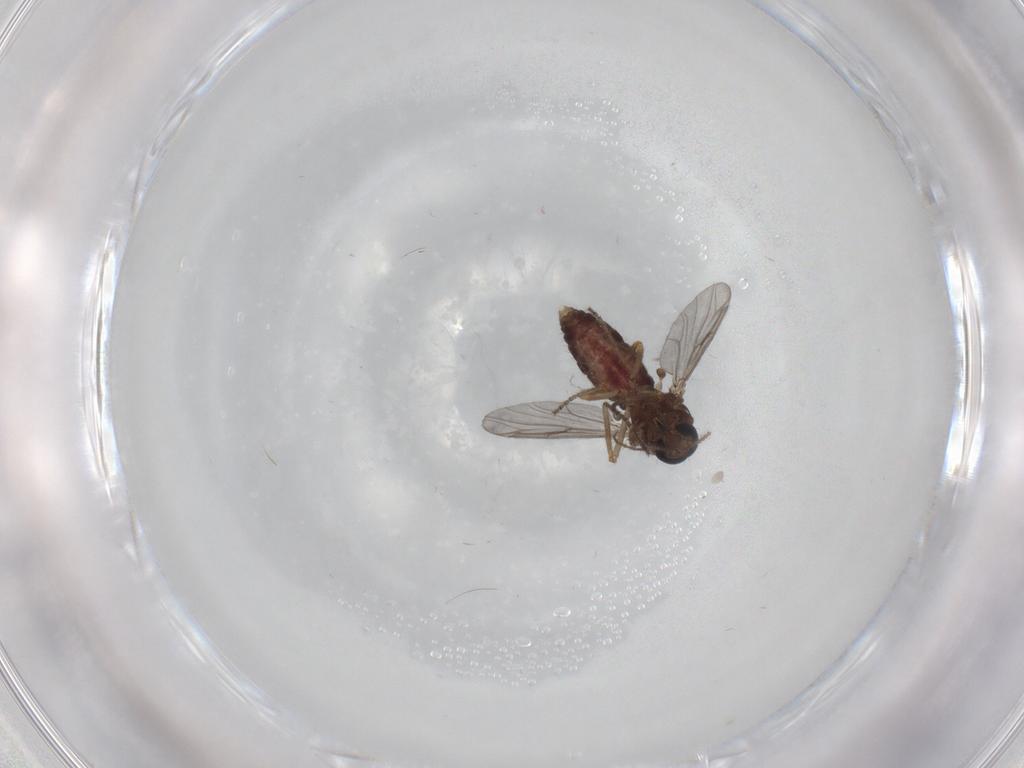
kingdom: Animalia
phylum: Arthropoda
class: Insecta
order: Diptera
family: Ceratopogonidae
